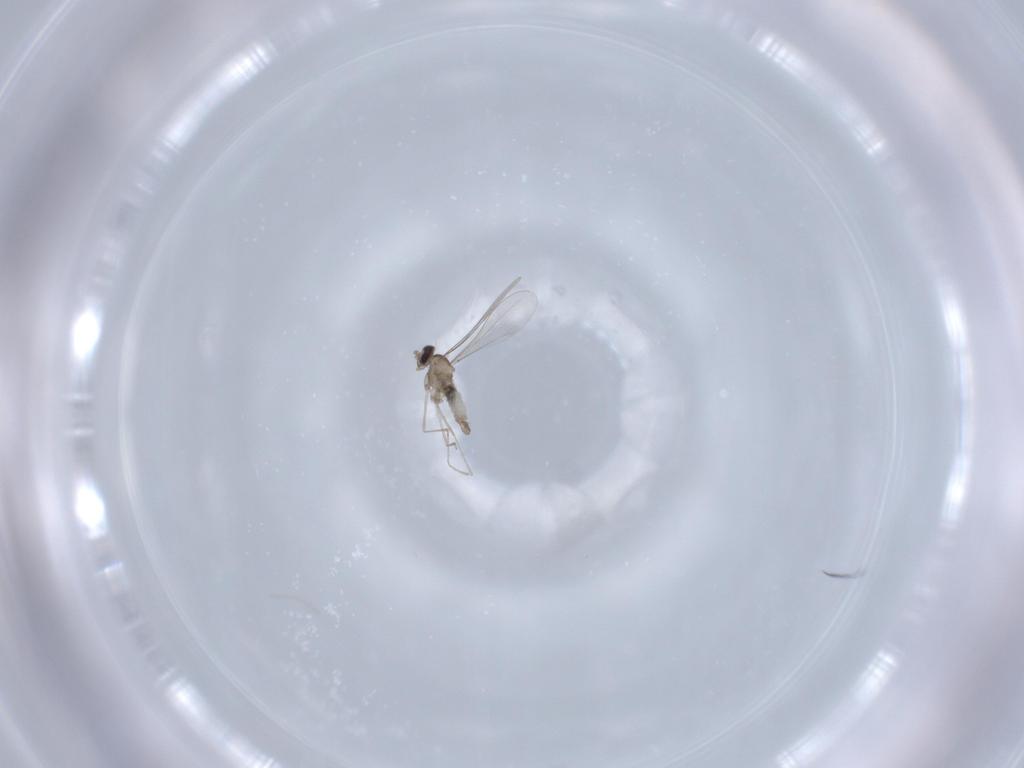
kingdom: Animalia
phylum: Arthropoda
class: Insecta
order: Diptera
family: Cecidomyiidae
